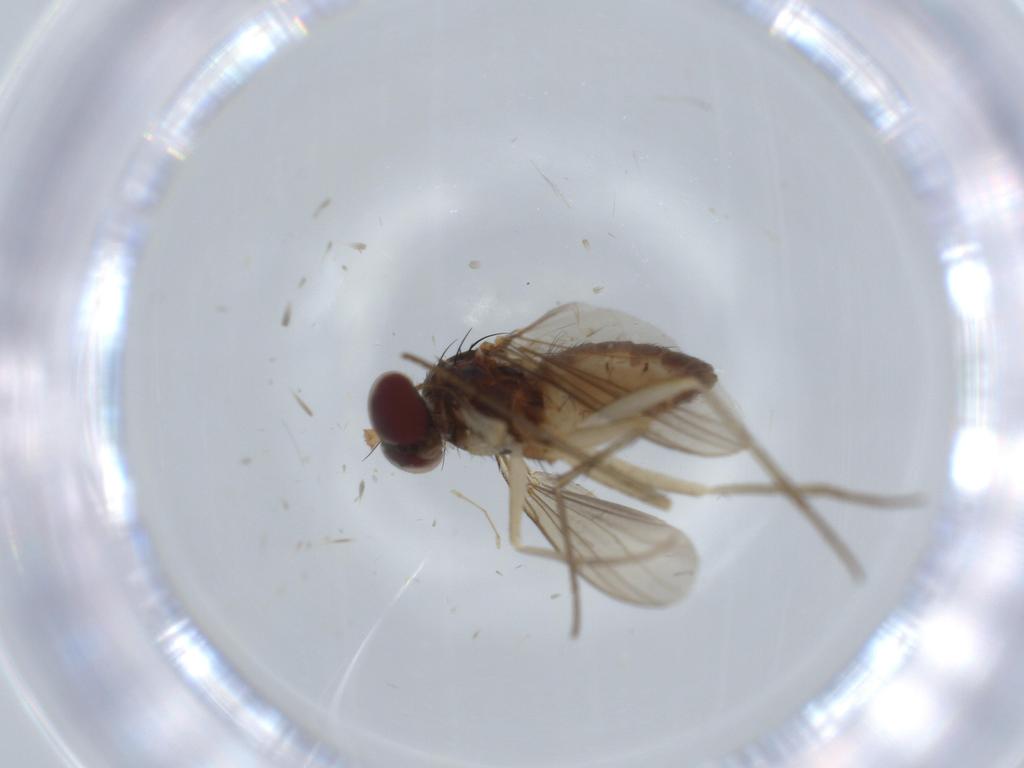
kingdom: Animalia
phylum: Arthropoda
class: Insecta
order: Diptera
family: Dolichopodidae
